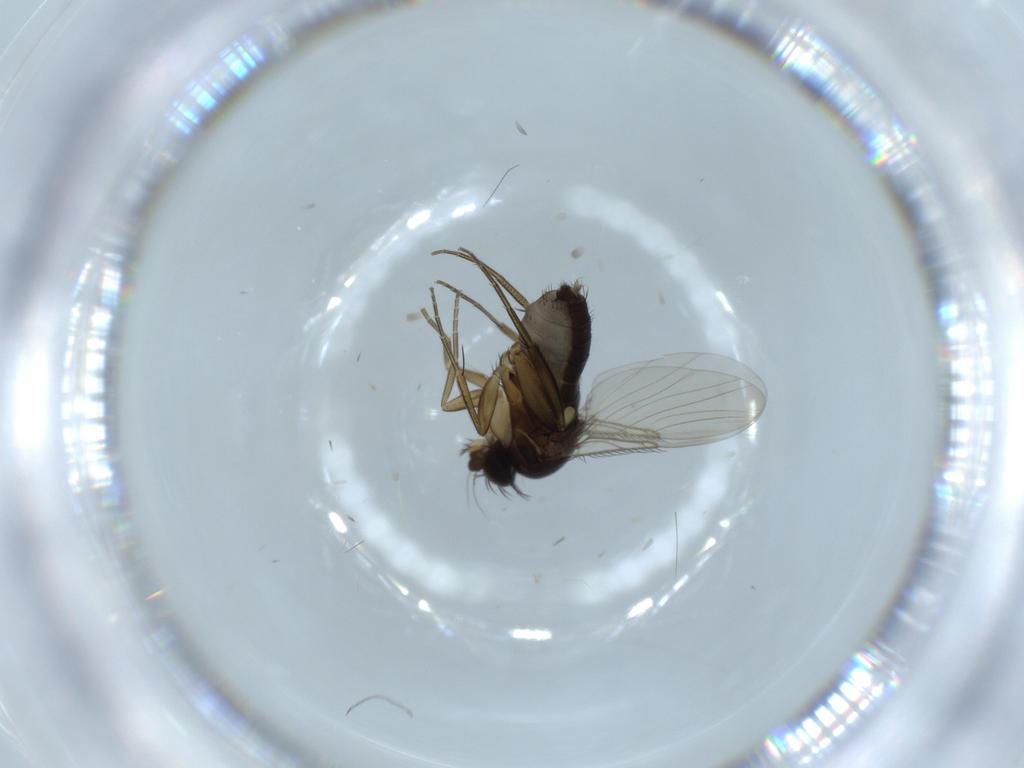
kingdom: Animalia
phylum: Arthropoda
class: Insecta
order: Diptera
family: Phoridae
